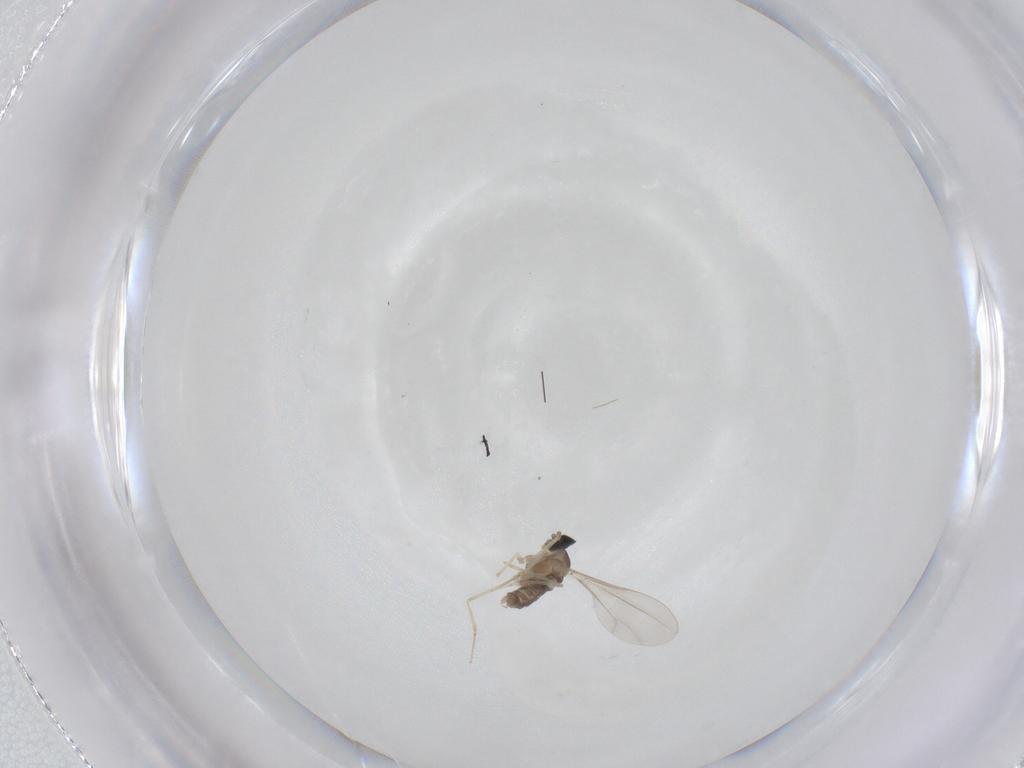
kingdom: Animalia
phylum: Arthropoda
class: Insecta
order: Diptera
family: Cecidomyiidae
